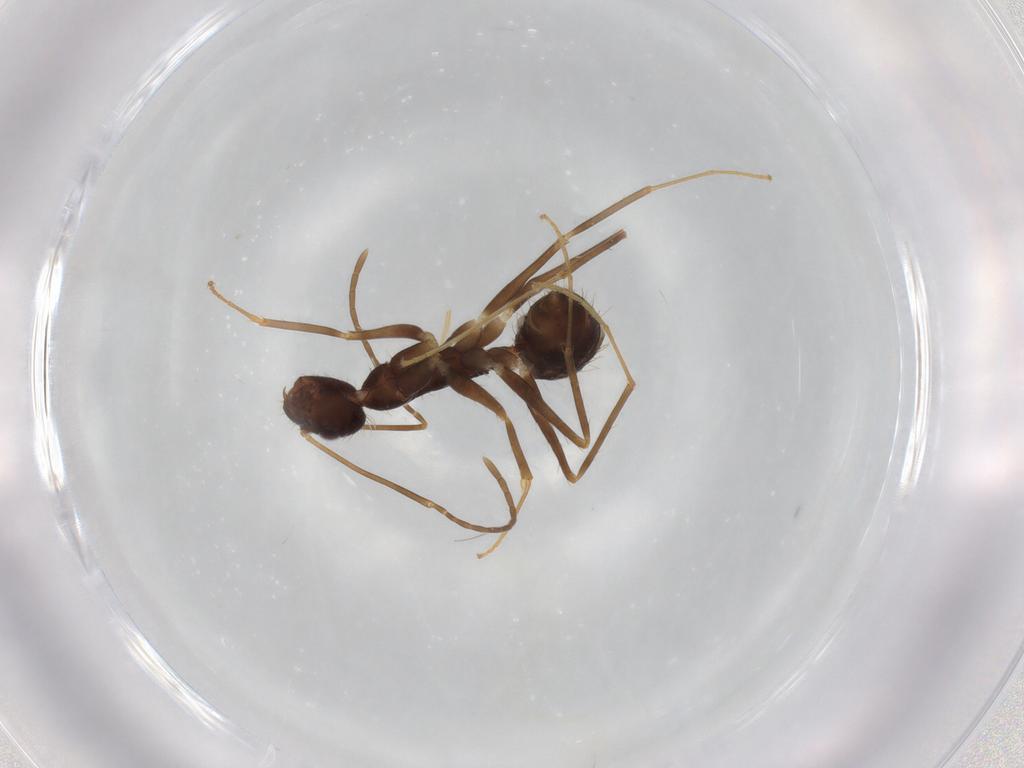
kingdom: Animalia
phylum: Arthropoda
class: Insecta
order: Hymenoptera
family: Formicidae
